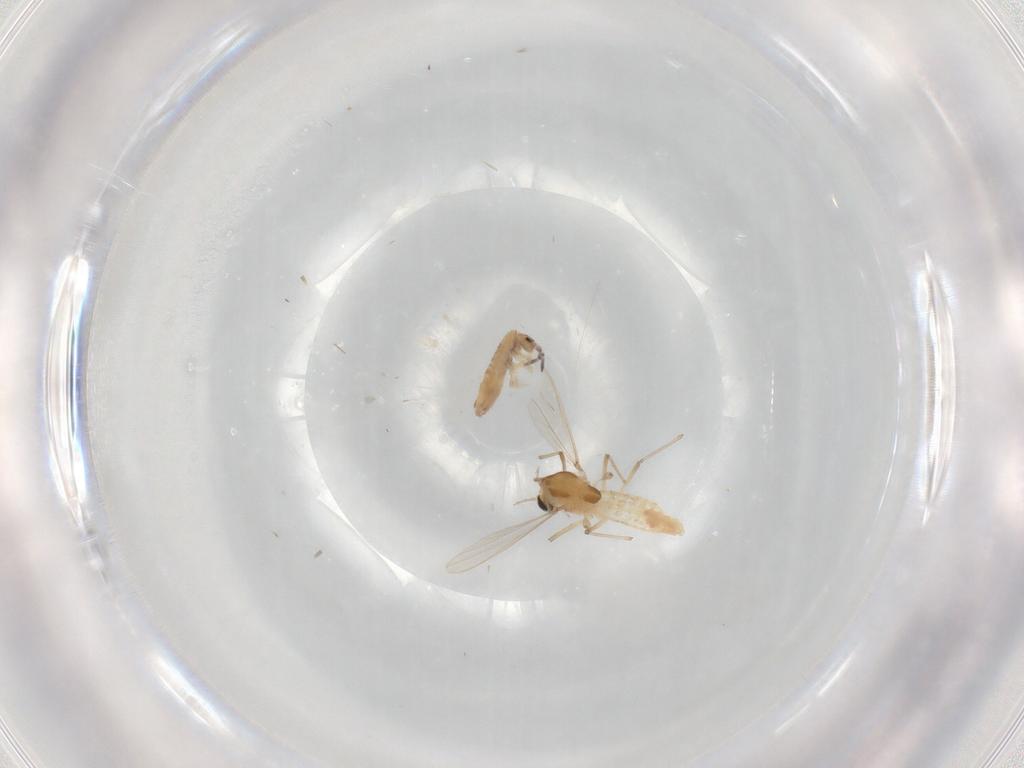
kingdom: Animalia
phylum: Arthropoda
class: Insecta
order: Diptera
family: Chironomidae
